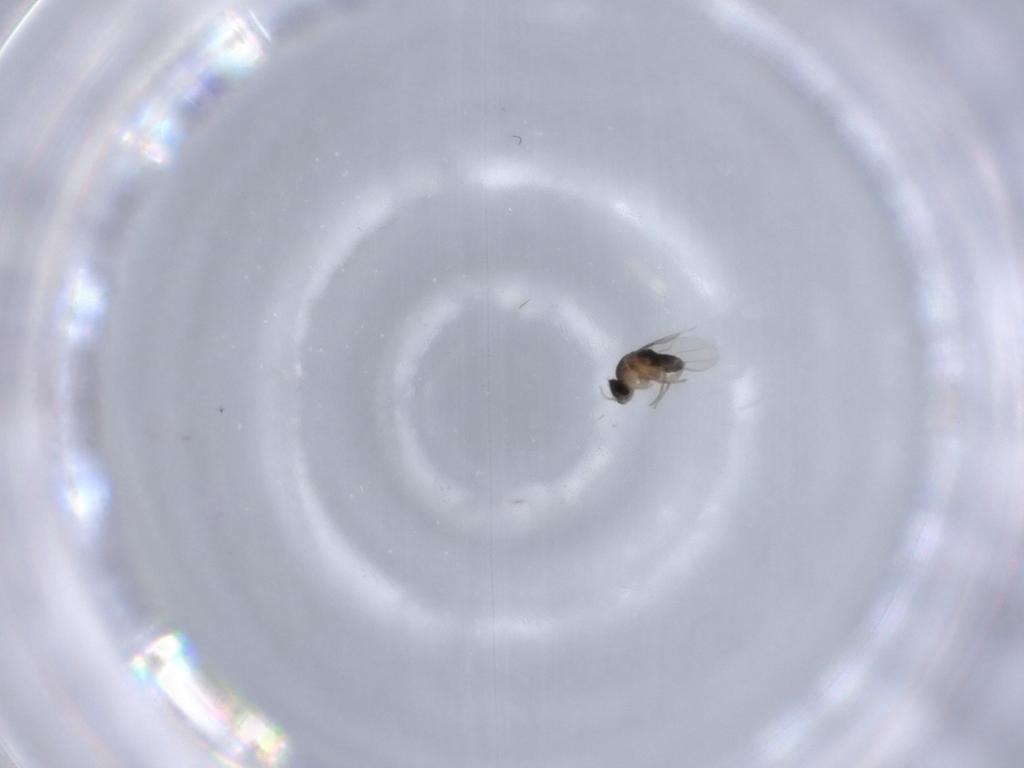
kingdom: Animalia
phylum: Arthropoda
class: Insecta
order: Diptera
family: Phoridae
